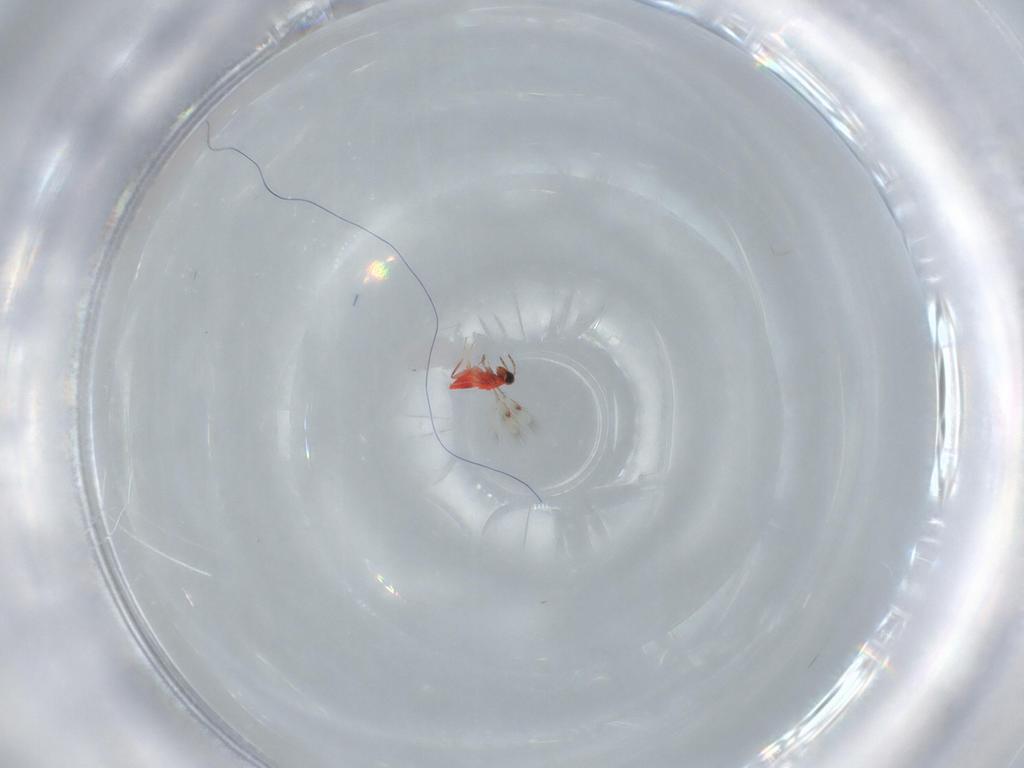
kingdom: Animalia
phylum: Arthropoda
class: Insecta
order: Hymenoptera
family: Trichogrammatidae
